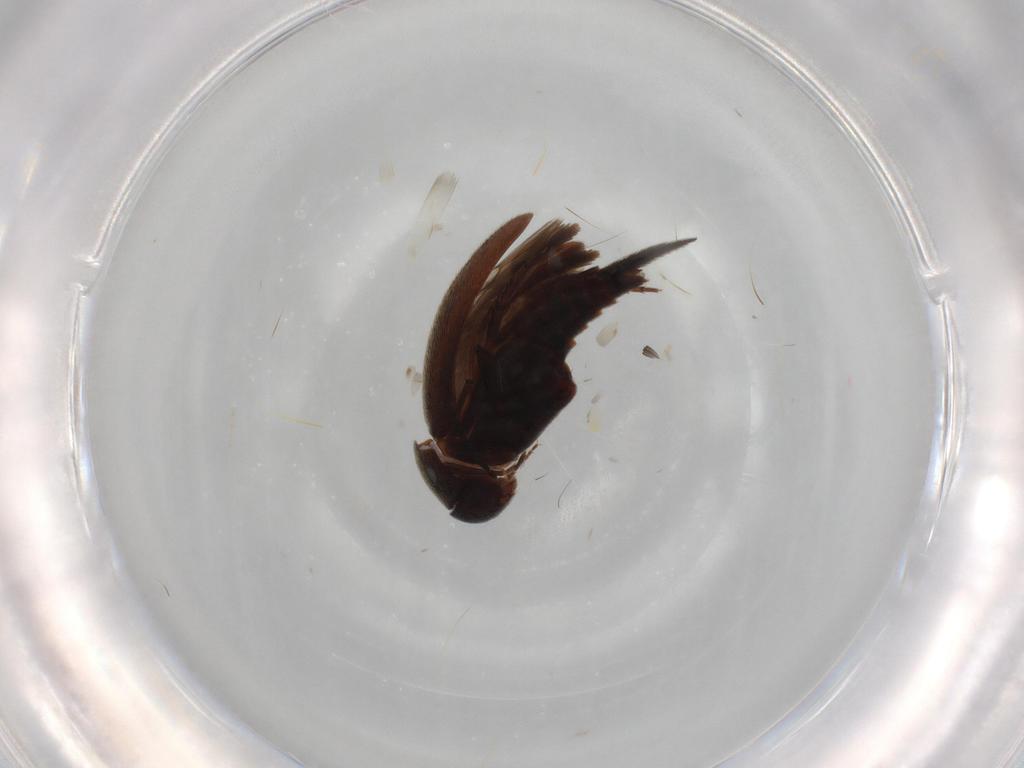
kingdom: Animalia
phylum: Arthropoda
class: Insecta
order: Coleoptera
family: Mordellidae
